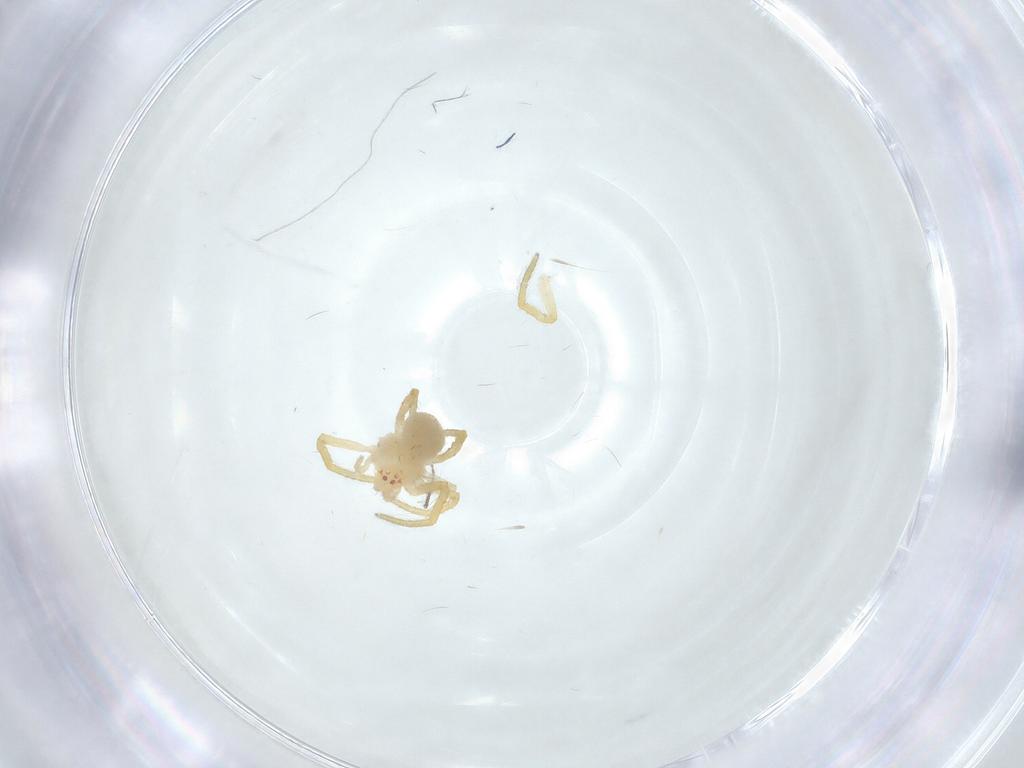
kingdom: Animalia
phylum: Arthropoda
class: Arachnida
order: Araneae
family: Theridiidae
